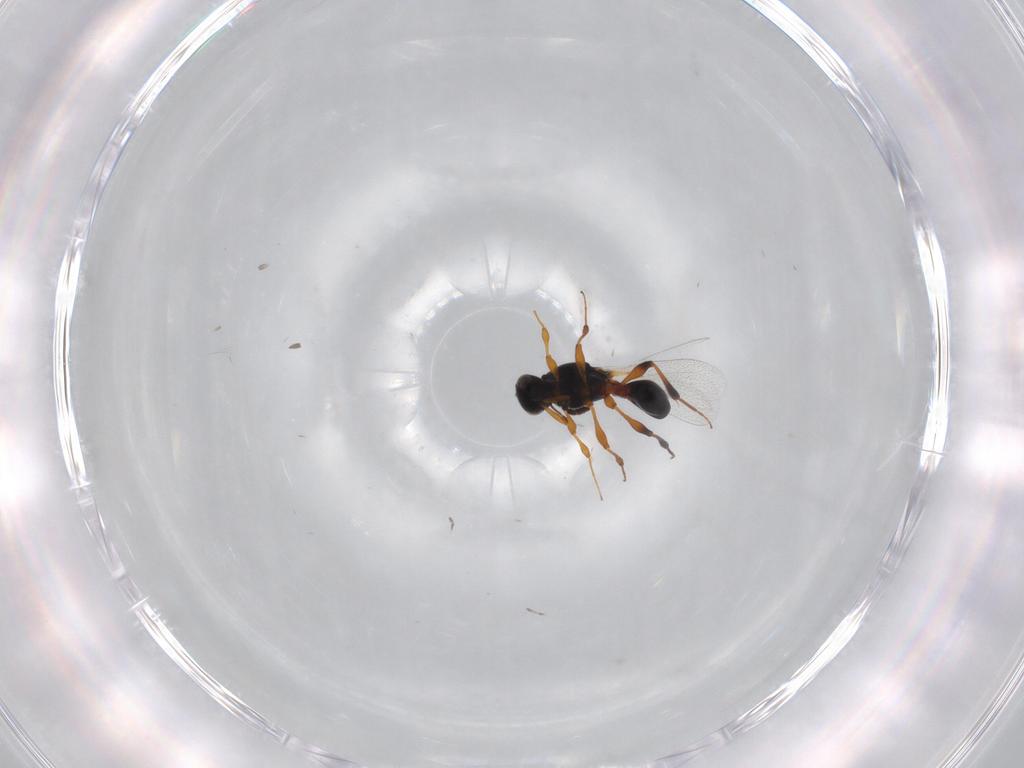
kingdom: Animalia
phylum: Arthropoda
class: Insecta
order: Hymenoptera
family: Platygastridae
